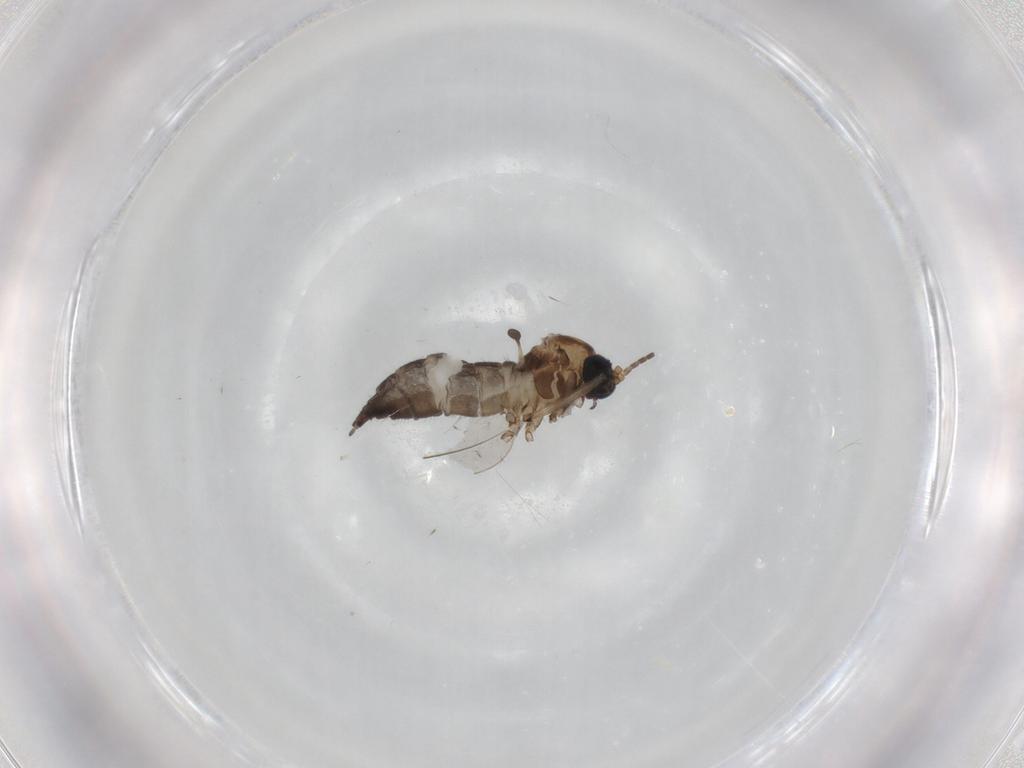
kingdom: Animalia
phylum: Arthropoda
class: Insecta
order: Diptera
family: Sciaridae
